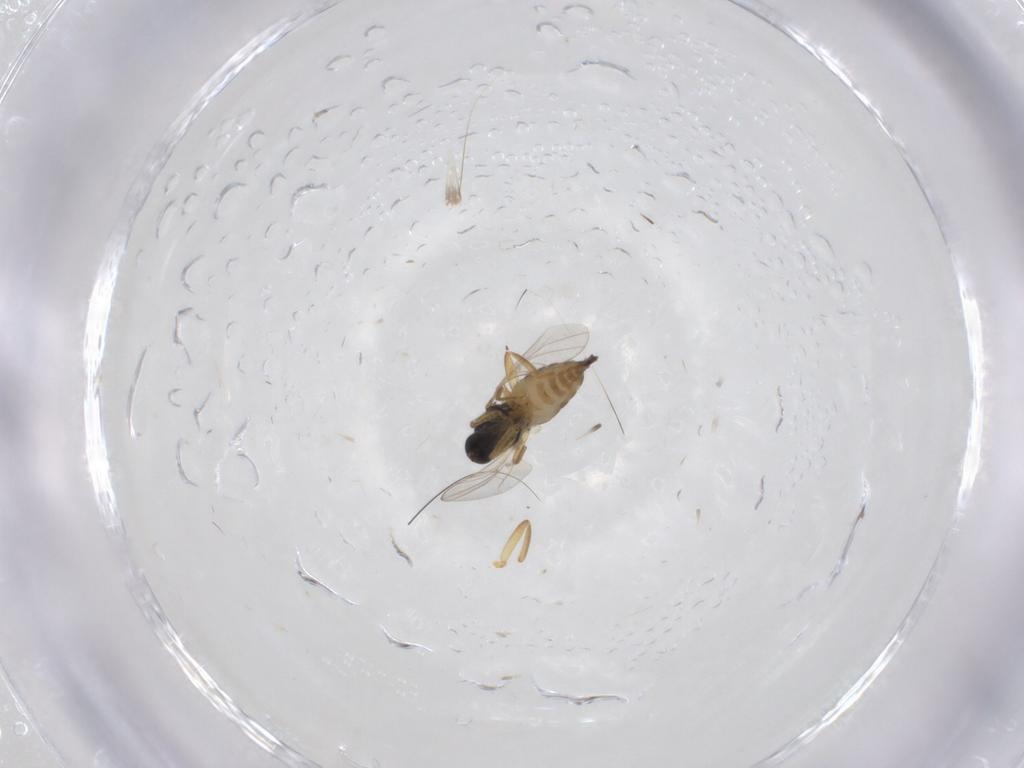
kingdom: Animalia
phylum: Arthropoda
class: Insecta
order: Diptera
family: Hybotidae
